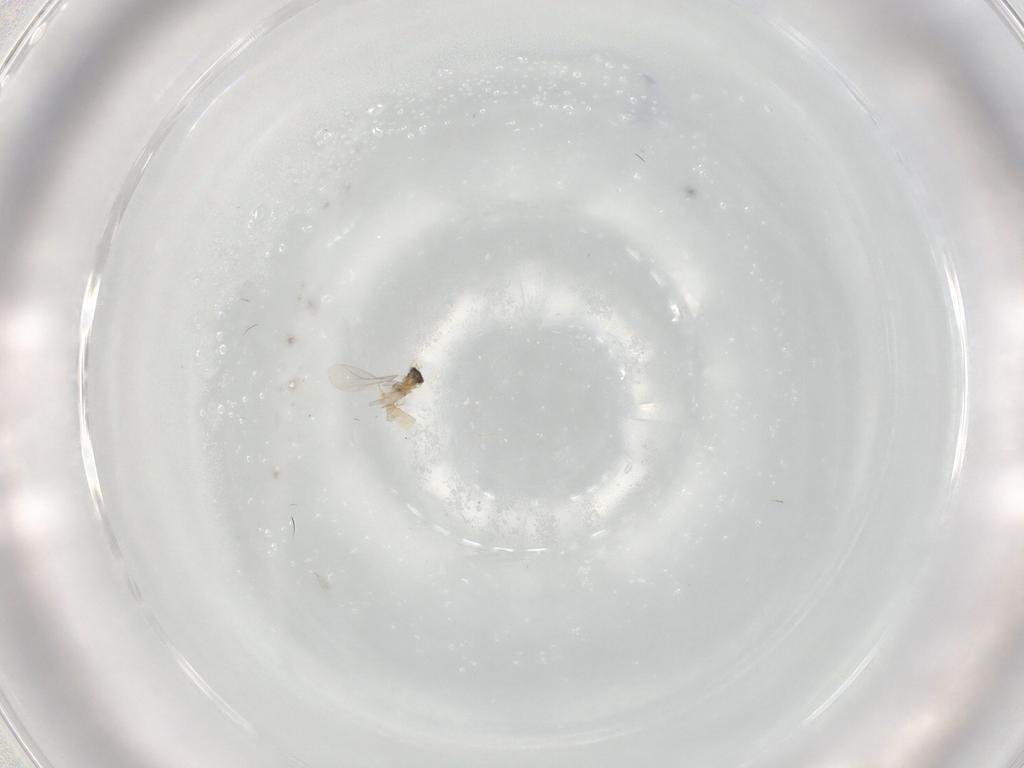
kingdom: Animalia
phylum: Arthropoda
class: Insecta
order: Diptera
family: Cecidomyiidae
